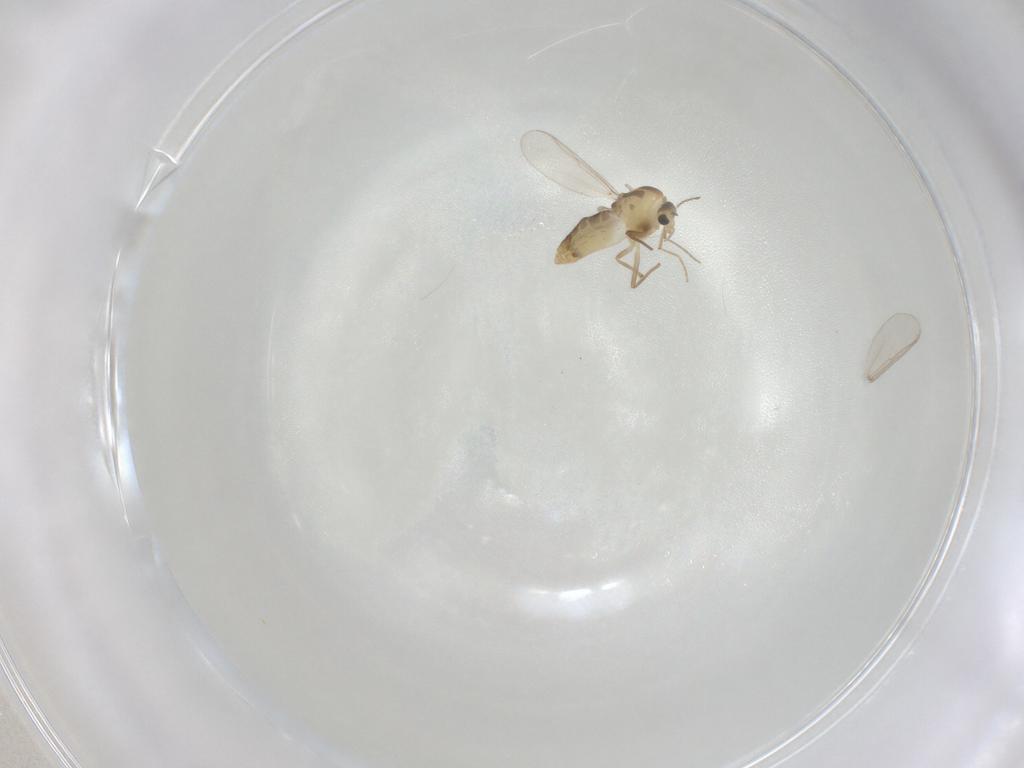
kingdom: Animalia
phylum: Arthropoda
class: Insecta
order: Diptera
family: Chironomidae
